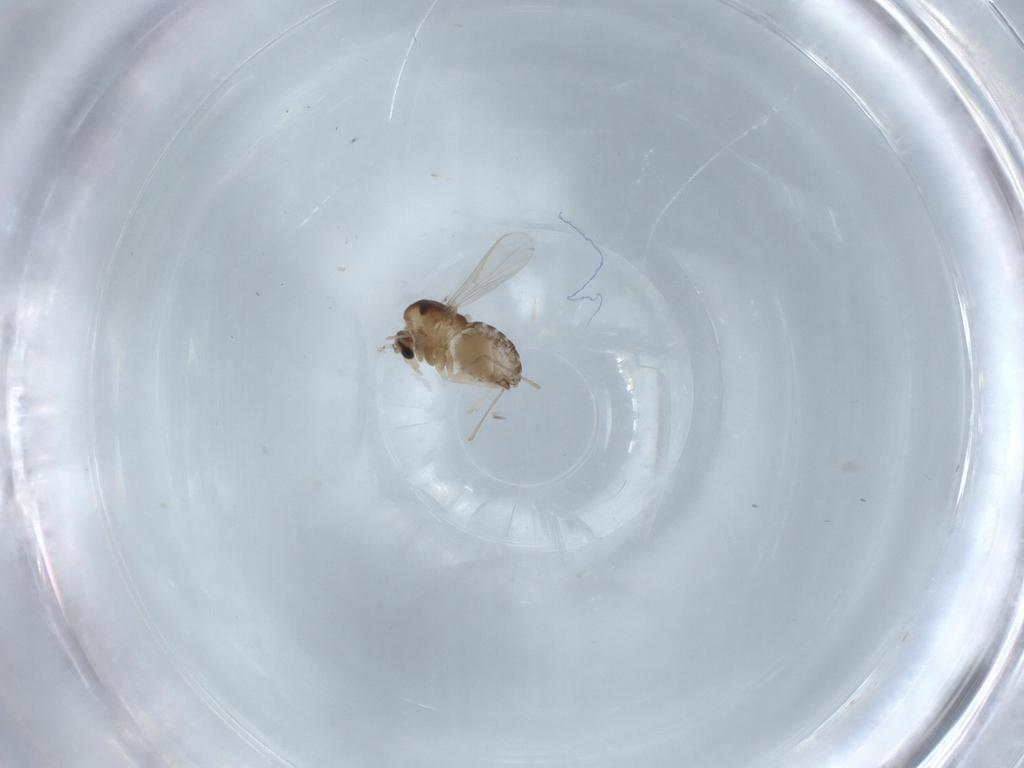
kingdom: Animalia
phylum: Arthropoda
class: Insecta
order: Diptera
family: Chironomidae
